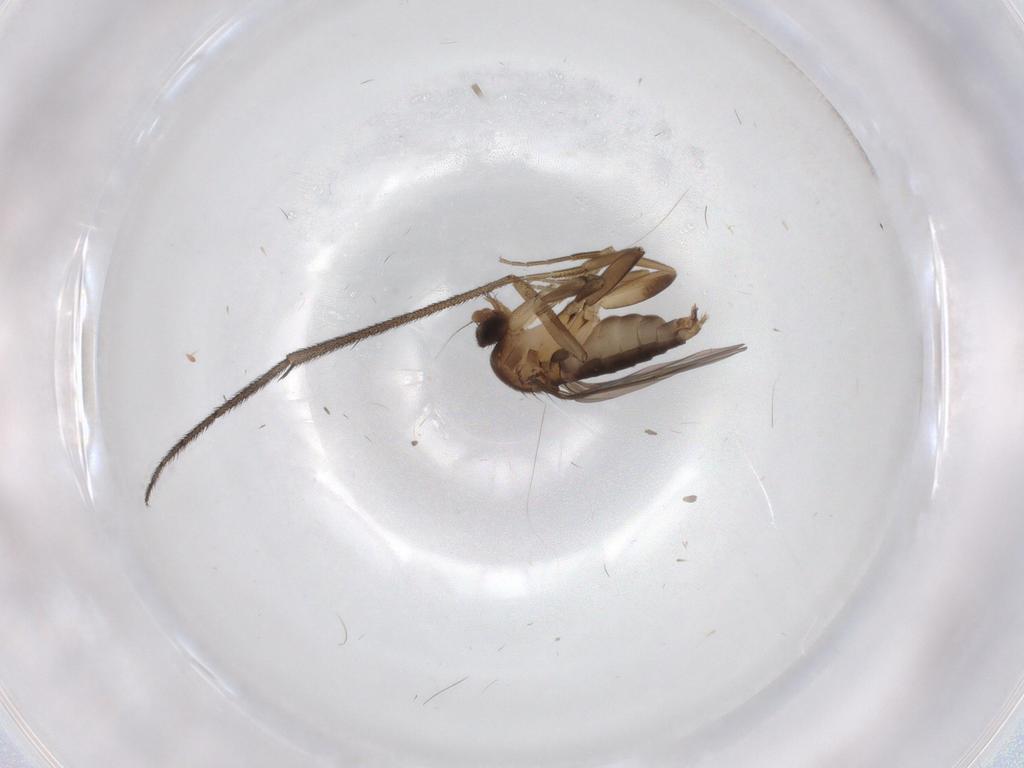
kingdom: Animalia
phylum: Arthropoda
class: Insecta
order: Diptera
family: Phoridae
